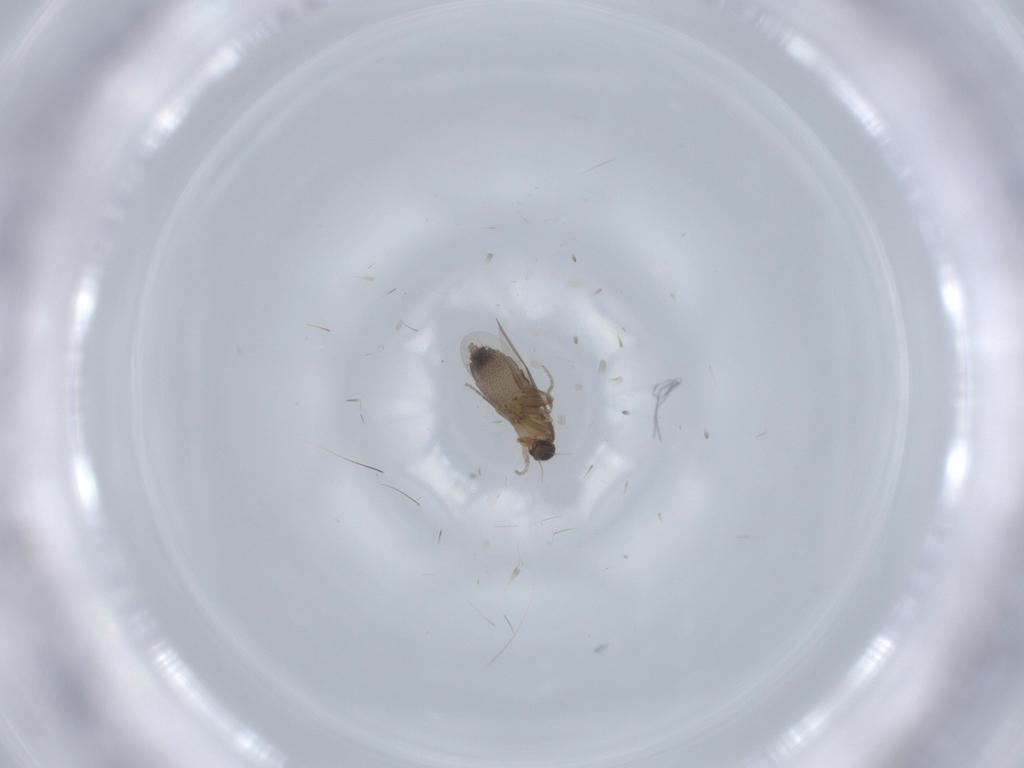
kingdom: Animalia
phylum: Arthropoda
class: Insecta
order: Diptera
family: Phoridae
